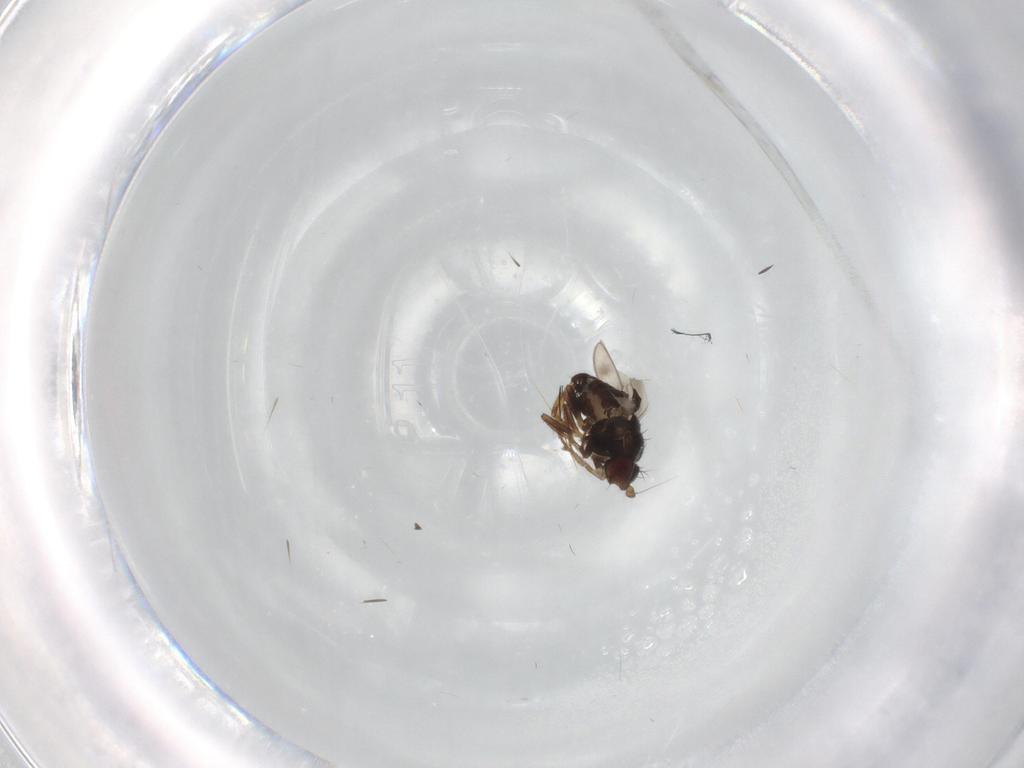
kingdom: Animalia
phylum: Arthropoda
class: Insecta
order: Diptera
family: Sphaeroceridae
